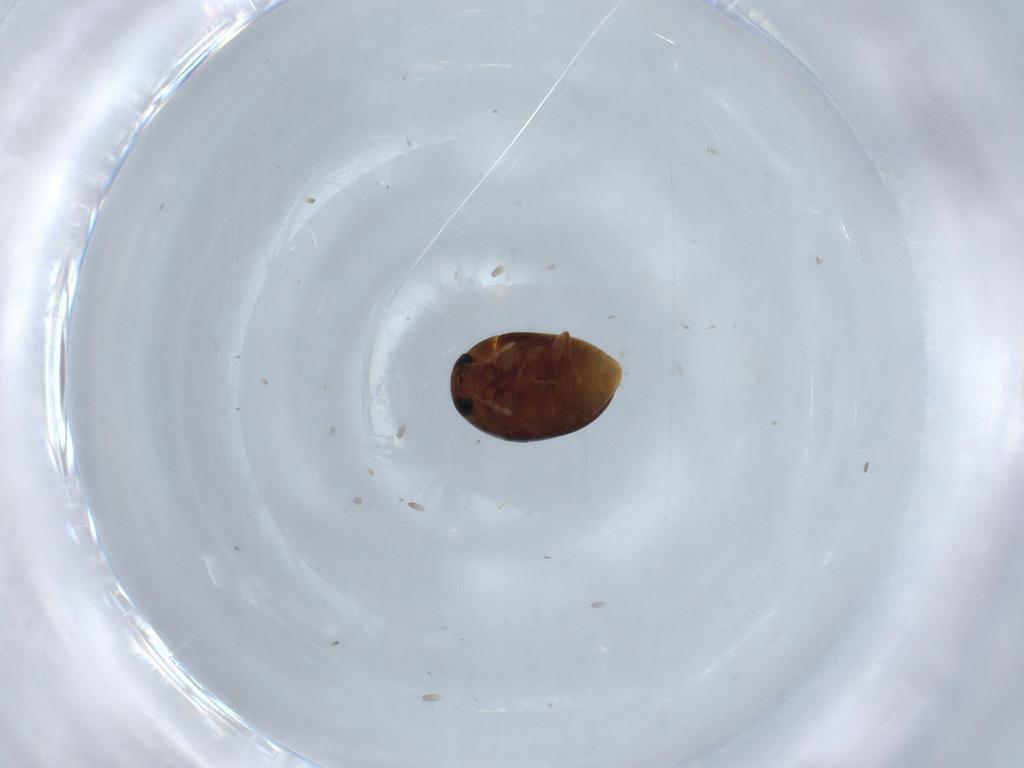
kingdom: Animalia
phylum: Arthropoda
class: Insecta
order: Coleoptera
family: Phalacridae
